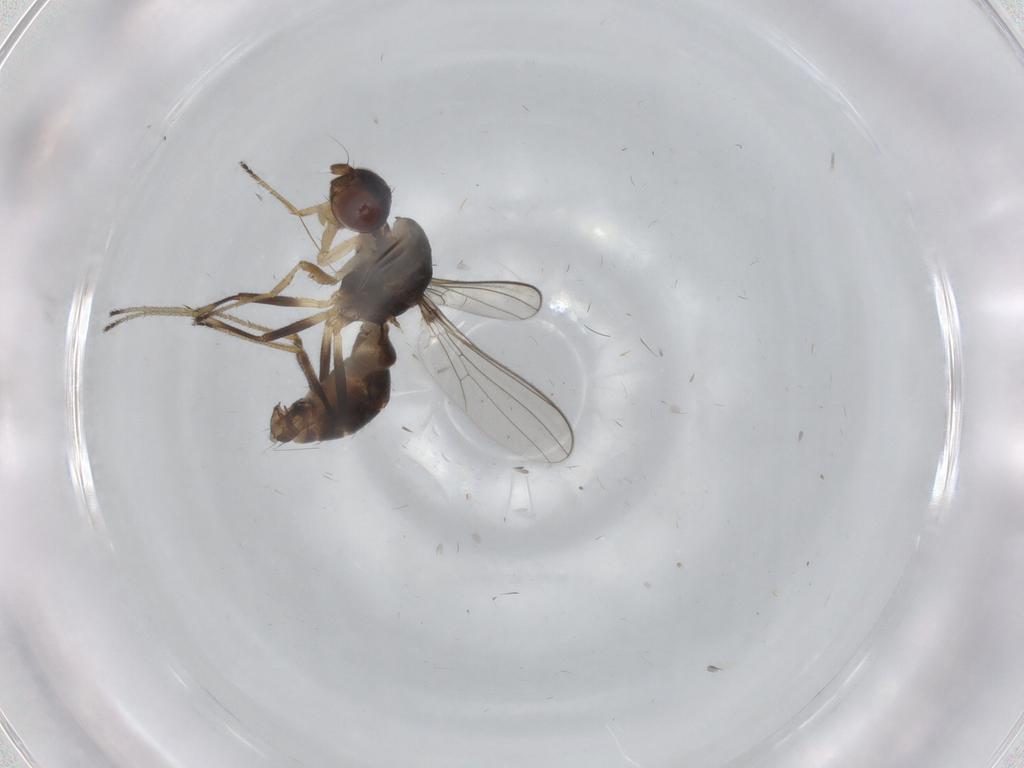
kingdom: Animalia
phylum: Arthropoda
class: Insecta
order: Diptera
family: Sepsidae
